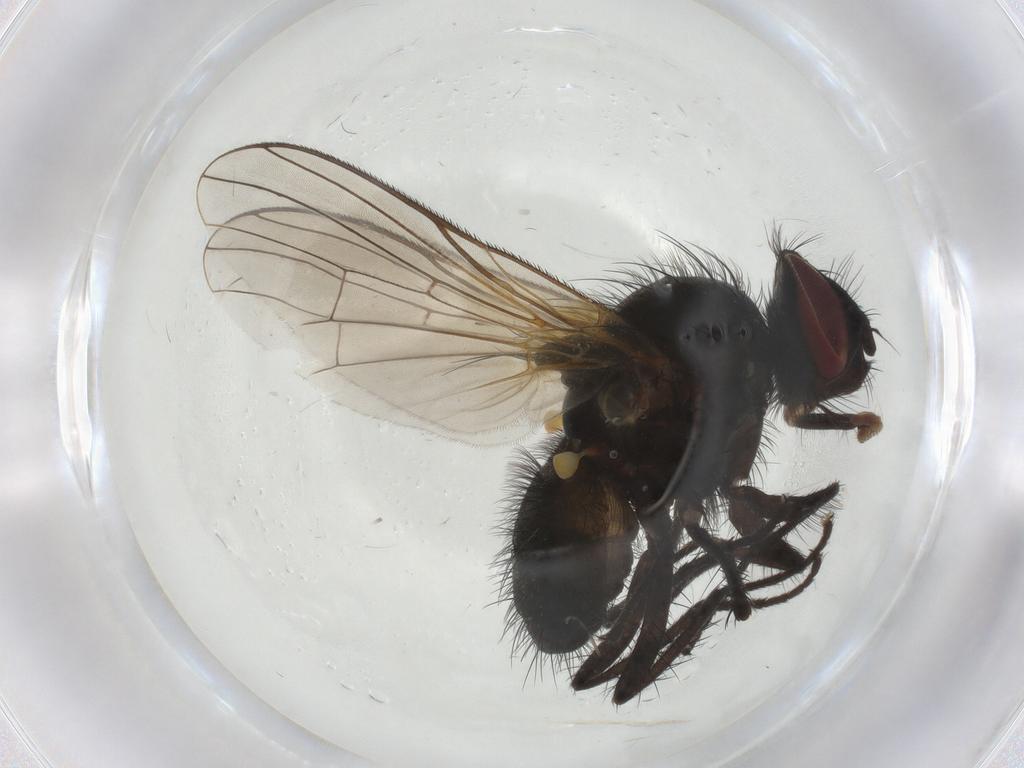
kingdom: Animalia
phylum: Arthropoda
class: Insecta
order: Diptera
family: Anthomyiidae
